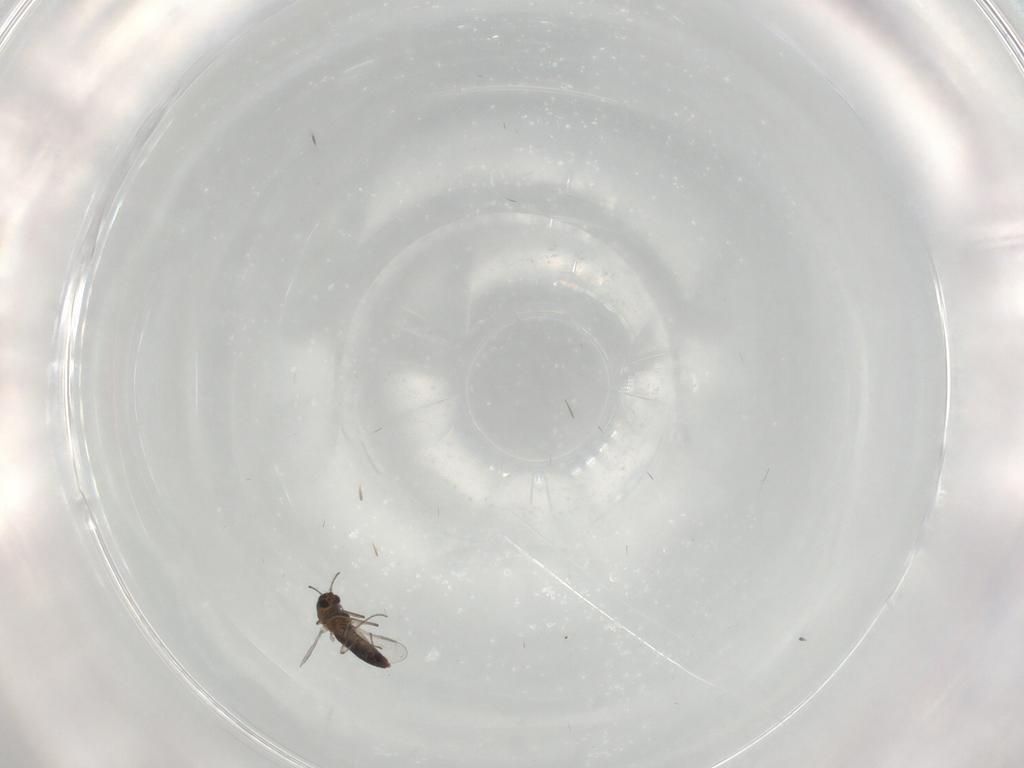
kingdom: Animalia
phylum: Arthropoda
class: Insecta
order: Diptera
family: Chironomidae
